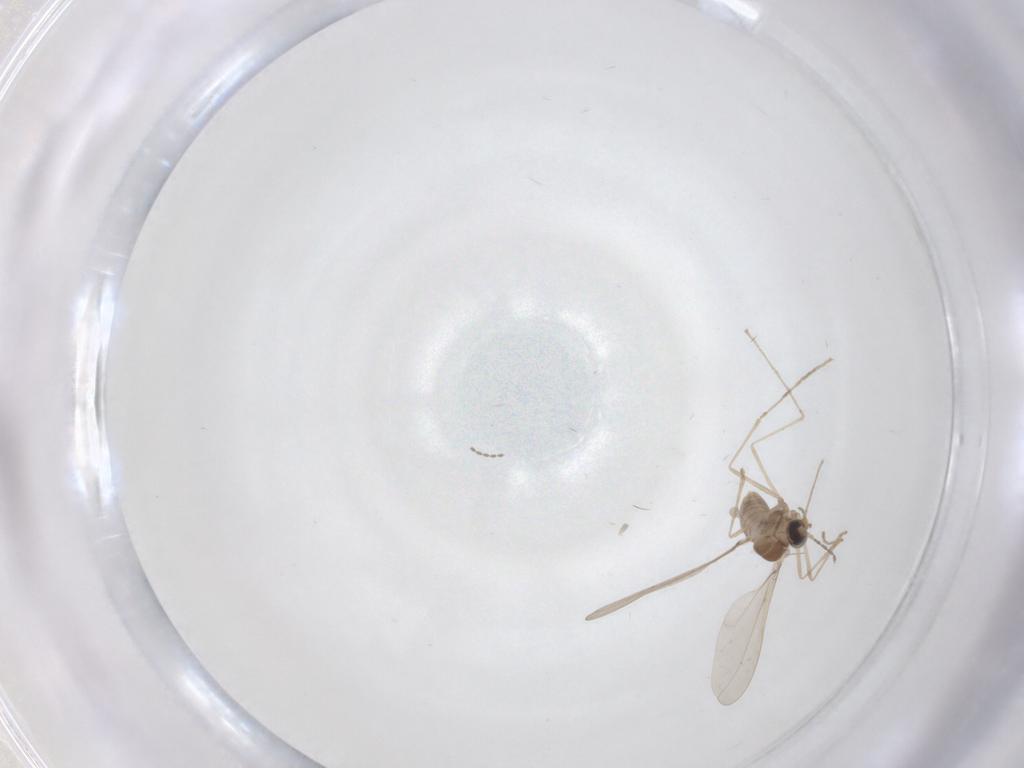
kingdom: Animalia
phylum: Arthropoda
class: Insecta
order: Diptera
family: Cecidomyiidae
